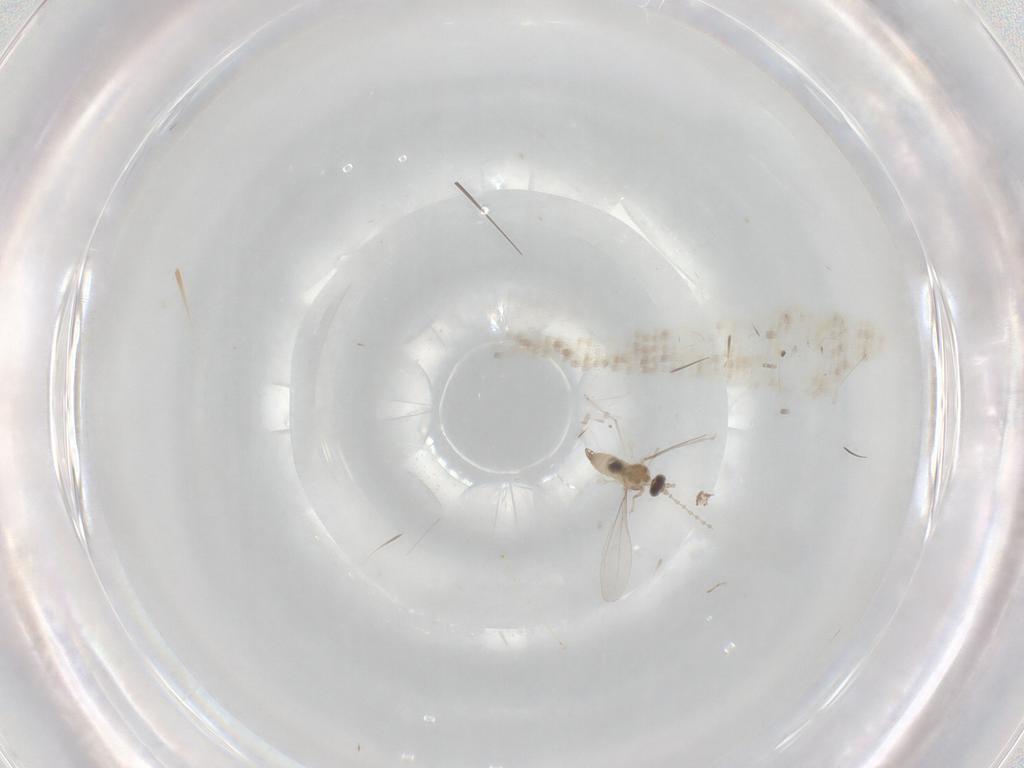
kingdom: Animalia
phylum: Arthropoda
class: Insecta
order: Diptera
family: Cecidomyiidae
